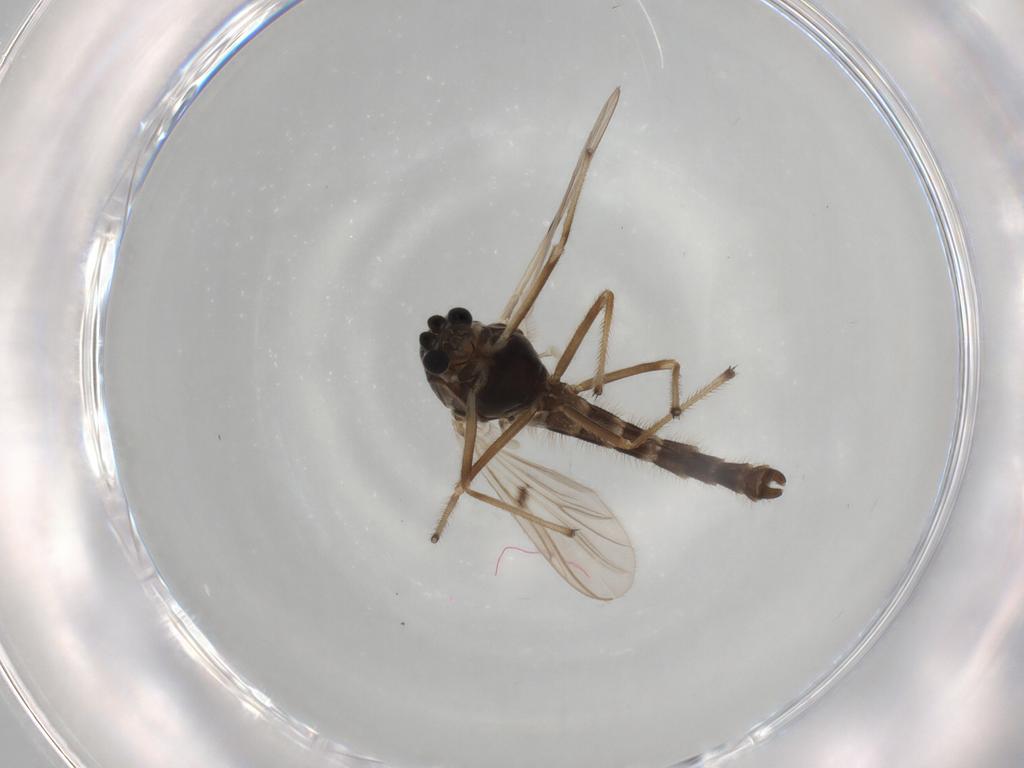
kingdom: Animalia
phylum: Arthropoda
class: Insecta
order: Diptera
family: Chironomidae
